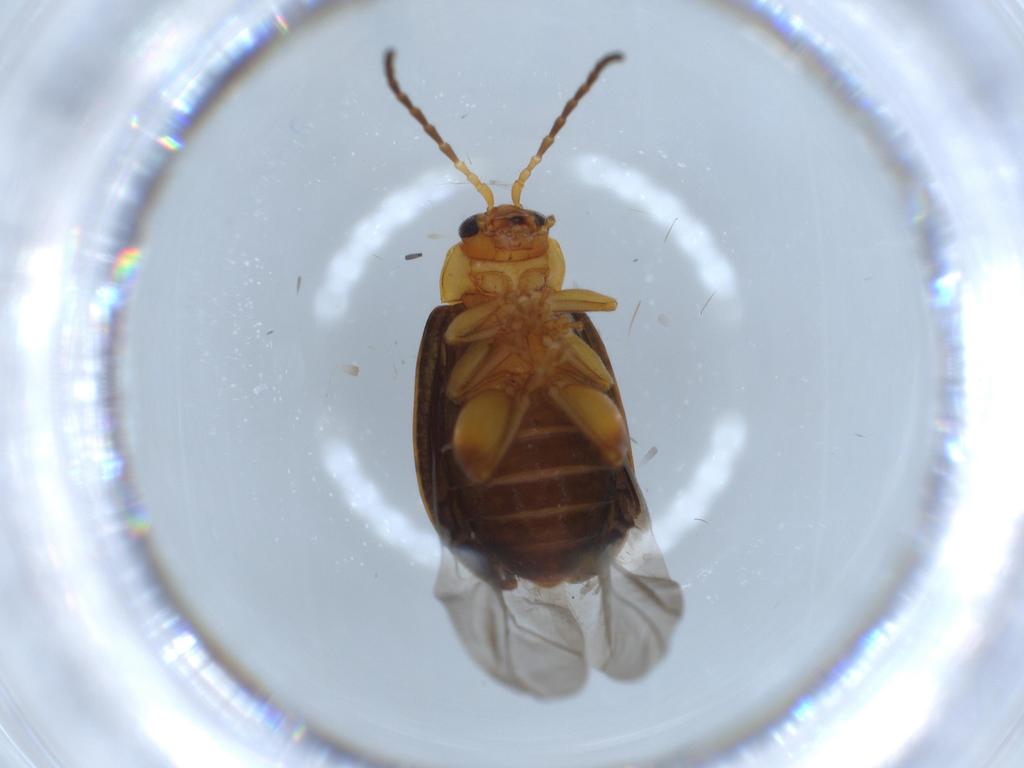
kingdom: Animalia
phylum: Arthropoda
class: Insecta
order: Coleoptera
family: Chrysomelidae
